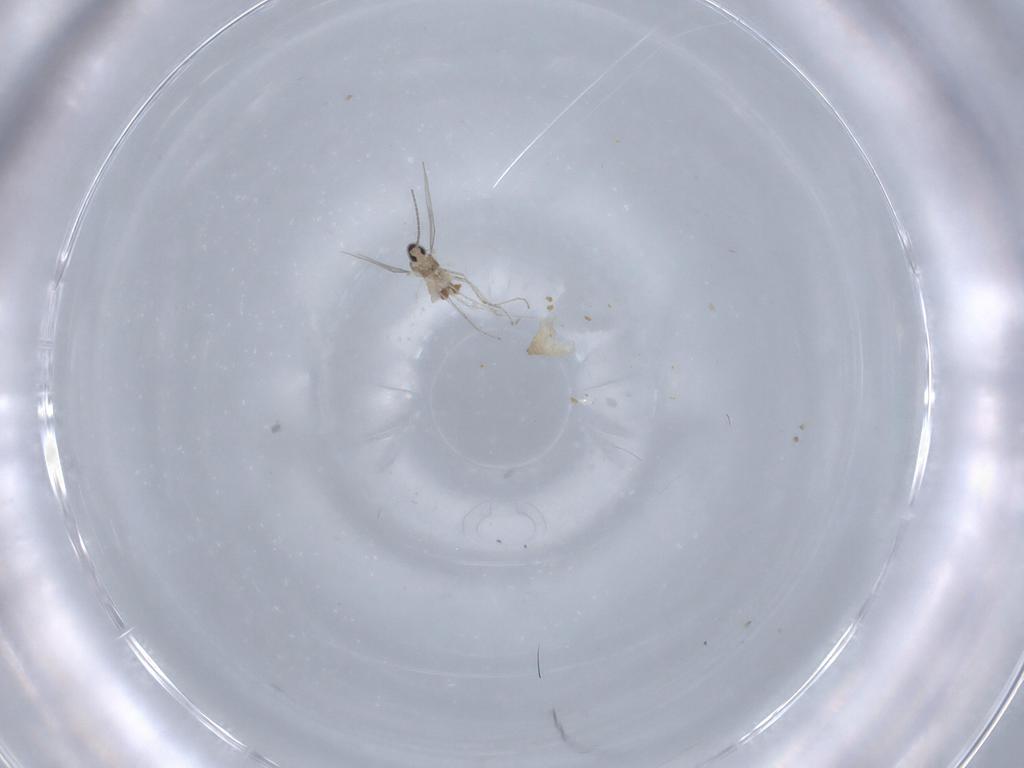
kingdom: Animalia
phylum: Arthropoda
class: Insecta
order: Diptera
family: Cecidomyiidae
